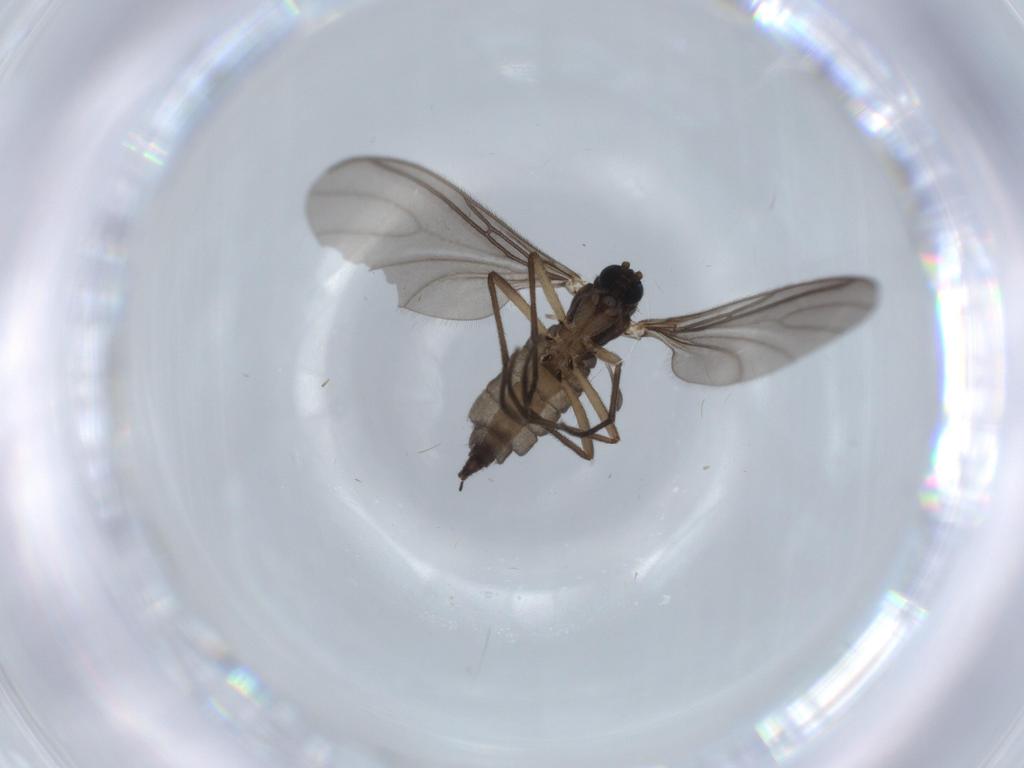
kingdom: Animalia
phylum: Arthropoda
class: Insecta
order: Diptera
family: Sciaridae
